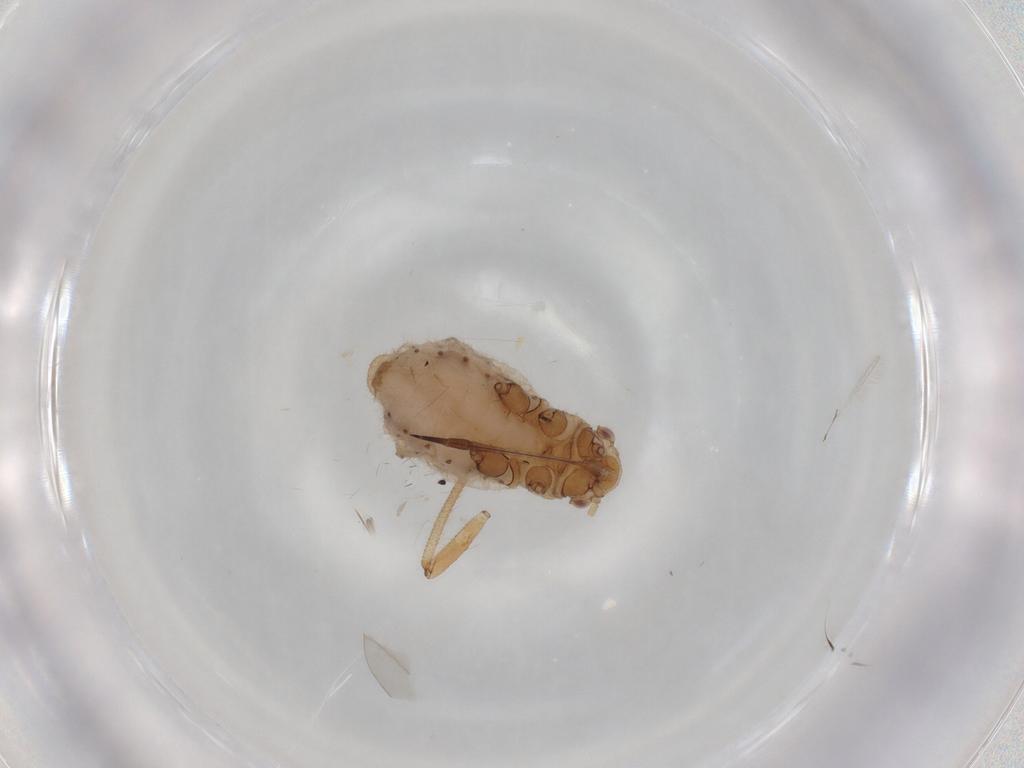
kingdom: Animalia
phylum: Arthropoda
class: Insecta
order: Hemiptera
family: Aphididae
